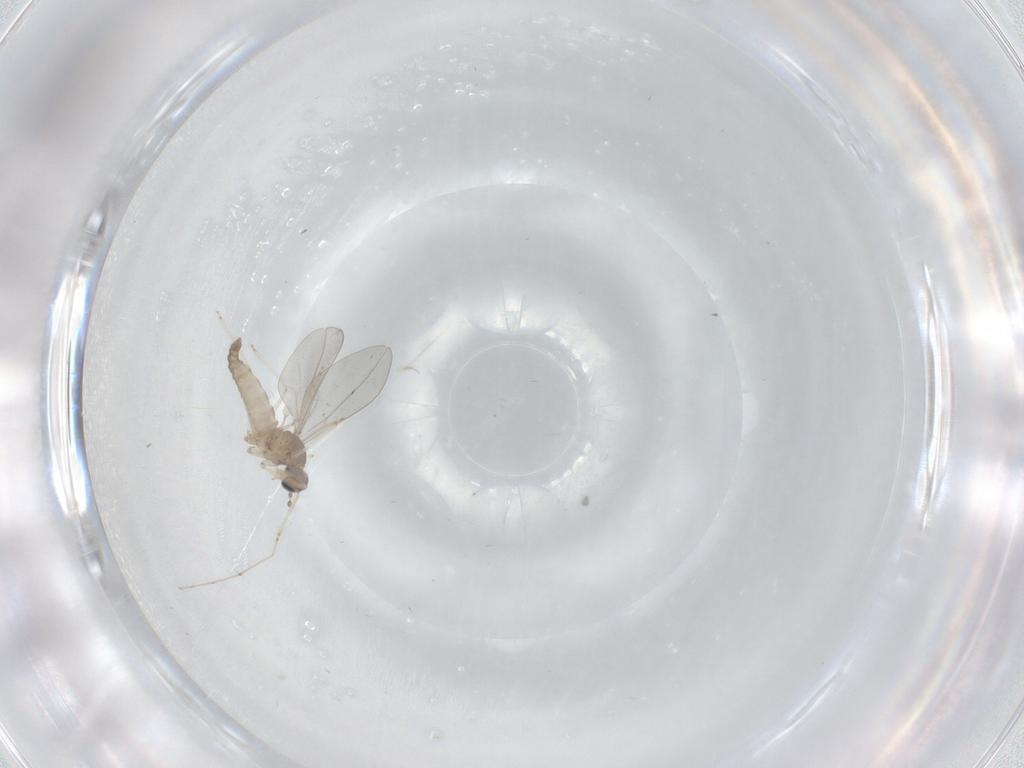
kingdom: Animalia
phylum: Arthropoda
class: Insecta
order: Diptera
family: Cecidomyiidae
